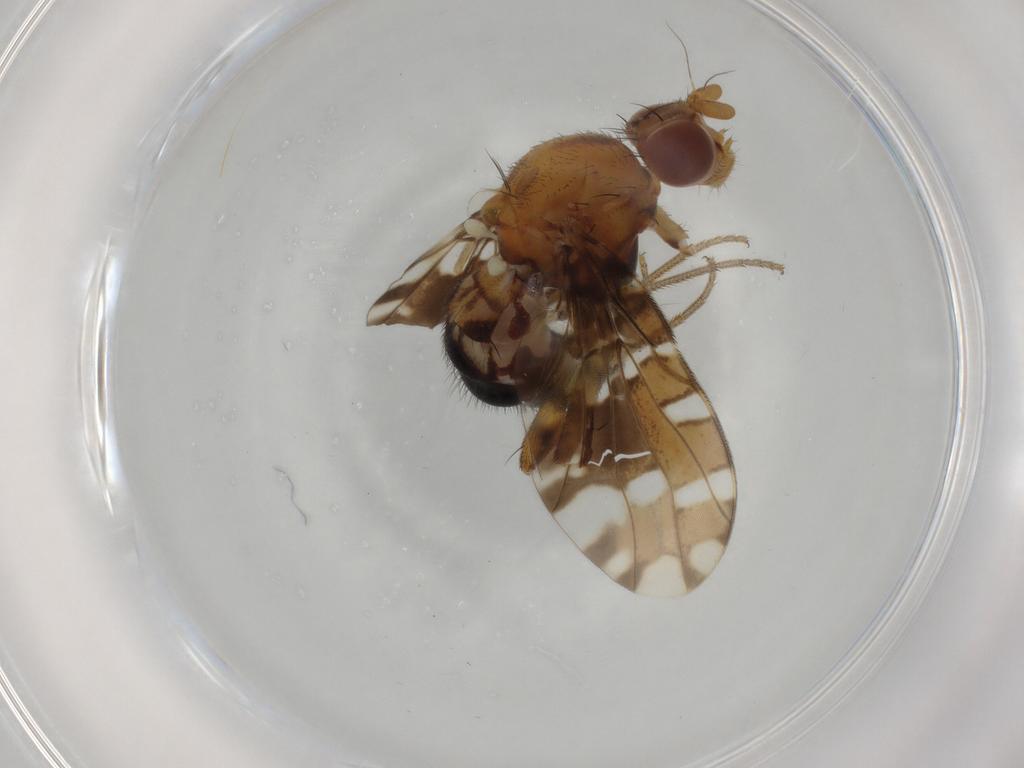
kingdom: Animalia
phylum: Arthropoda
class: Insecta
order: Diptera
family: Ulidiidae
